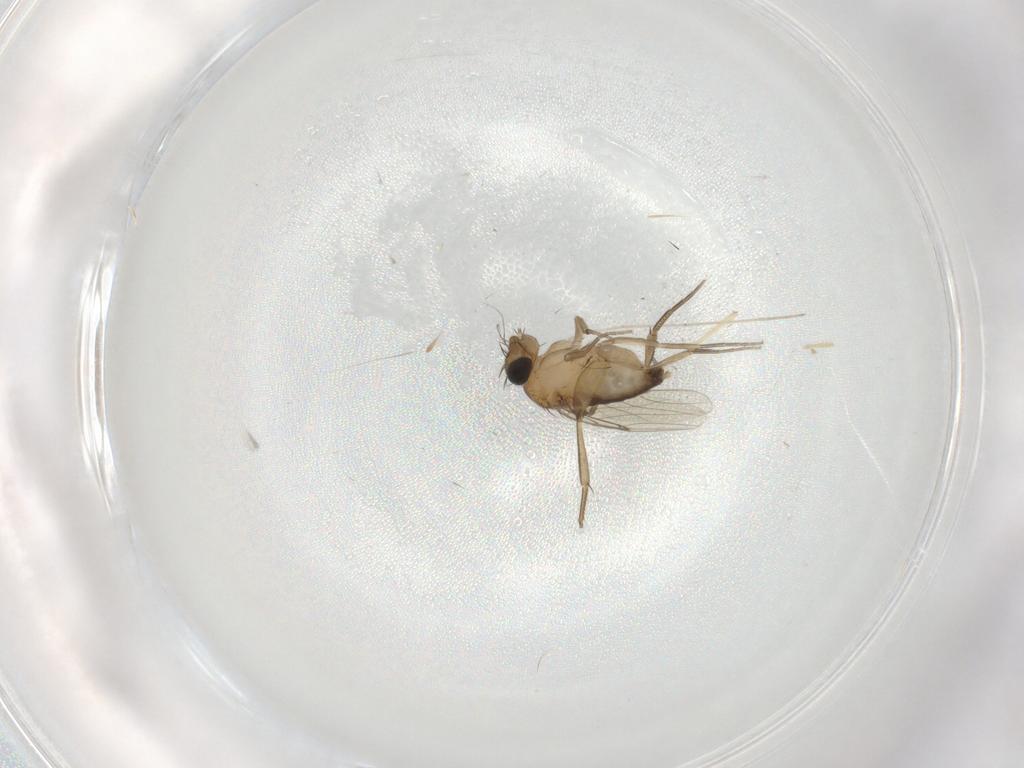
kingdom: Animalia
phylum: Arthropoda
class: Insecta
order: Diptera
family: Phoridae
